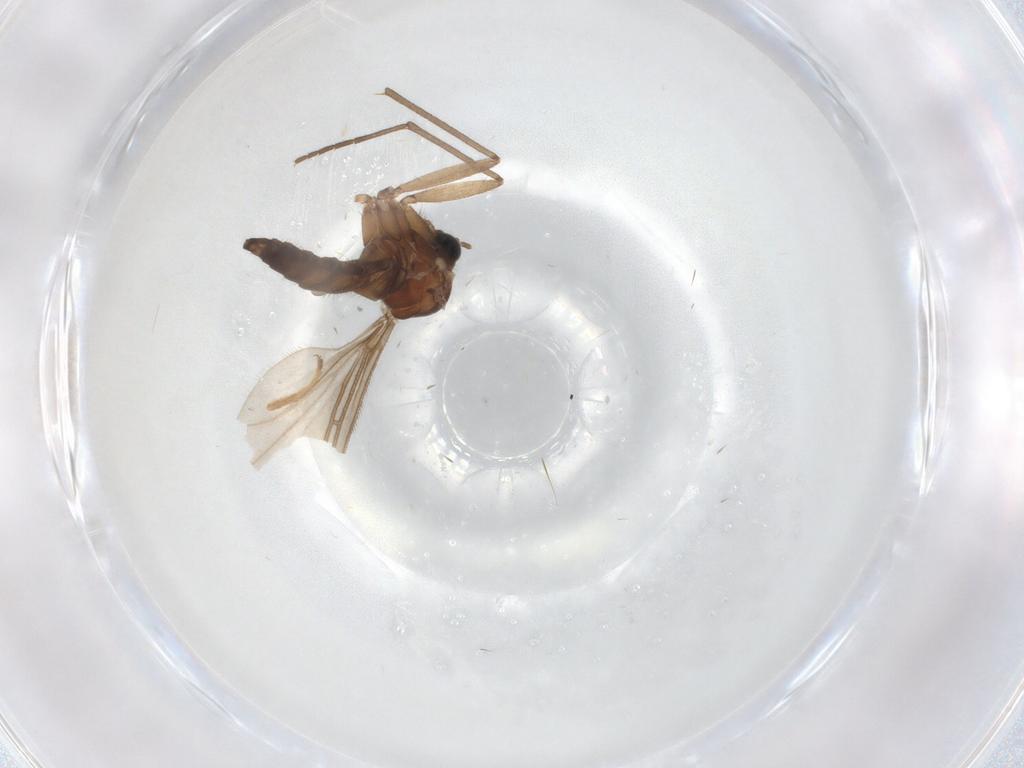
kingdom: Animalia
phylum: Arthropoda
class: Insecta
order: Diptera
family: Sciaridae
